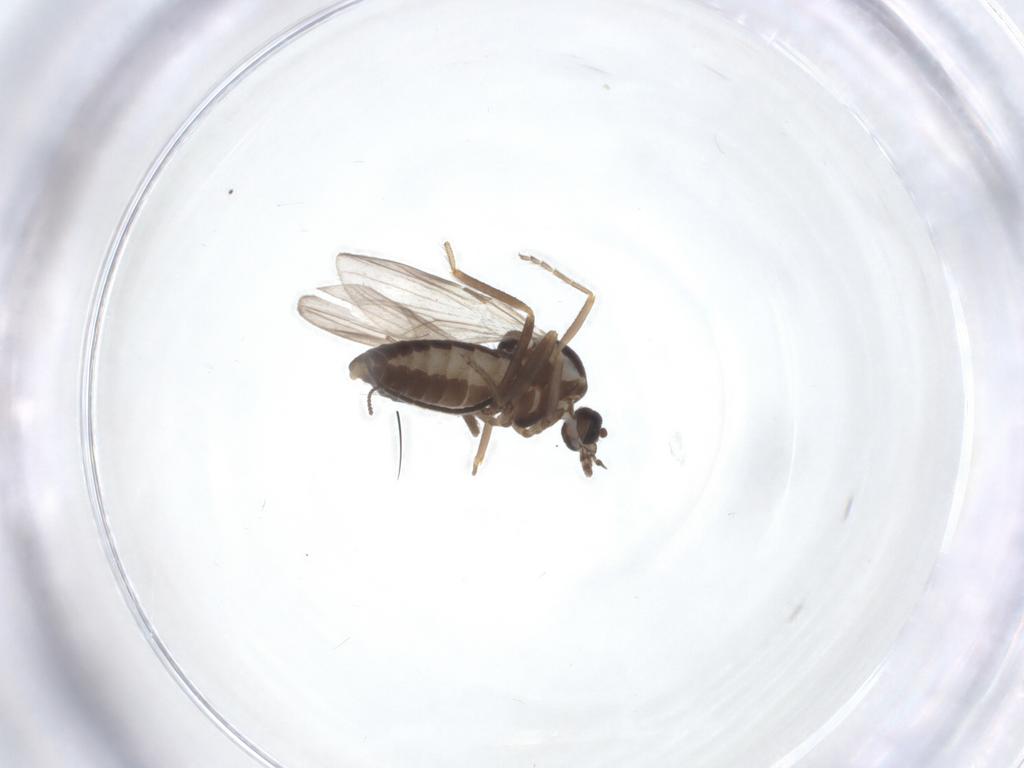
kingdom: Animalia
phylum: Arthropoda
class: Insecta
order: Diptera
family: Ceratopogonidae
